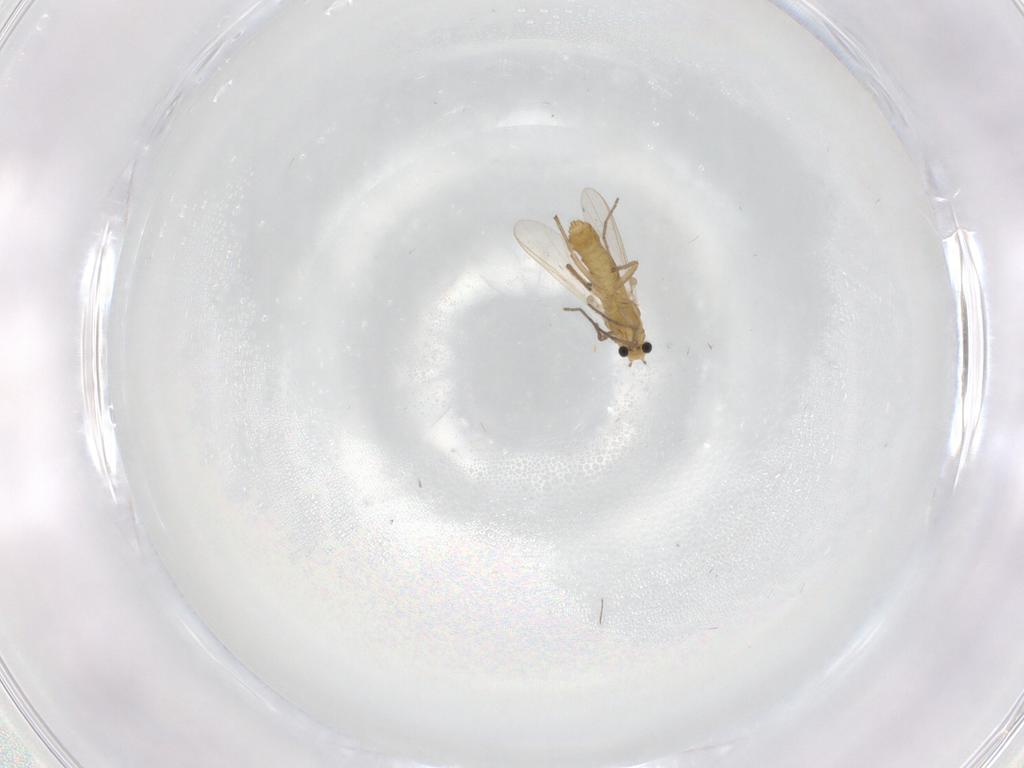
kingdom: Animalia
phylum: Arthropoda
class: Insecta
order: Diptera
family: Chironomidae
